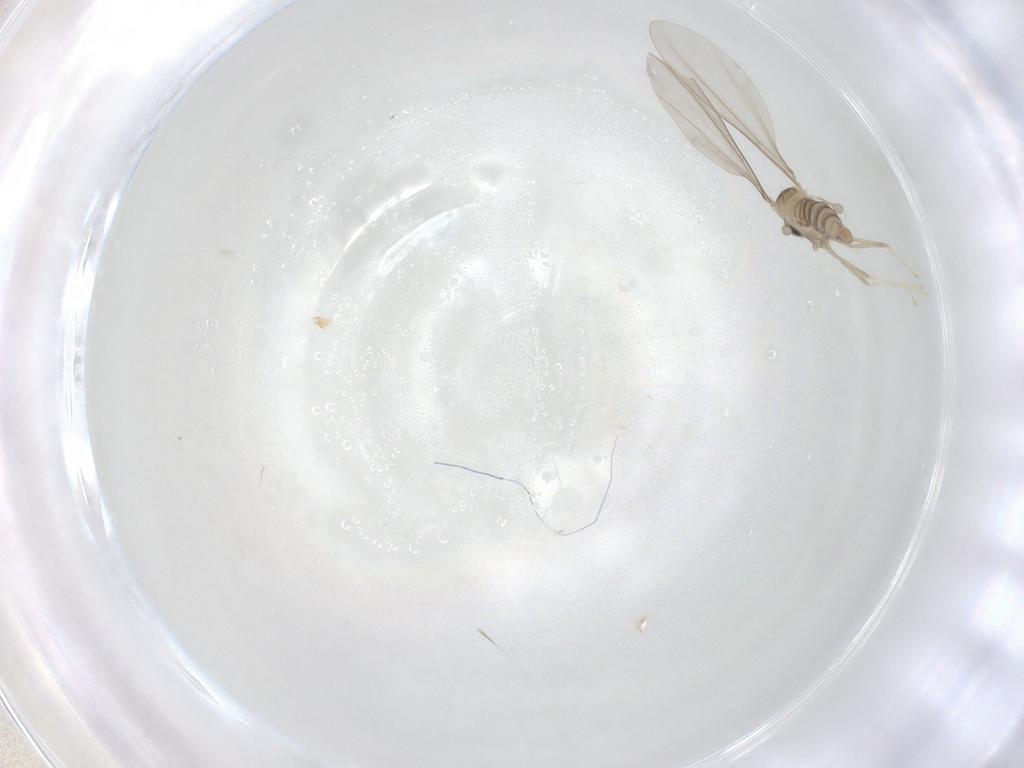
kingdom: Animalia
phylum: Arthropoda
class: Insecta
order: Diptera
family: Cecidomyiidae
